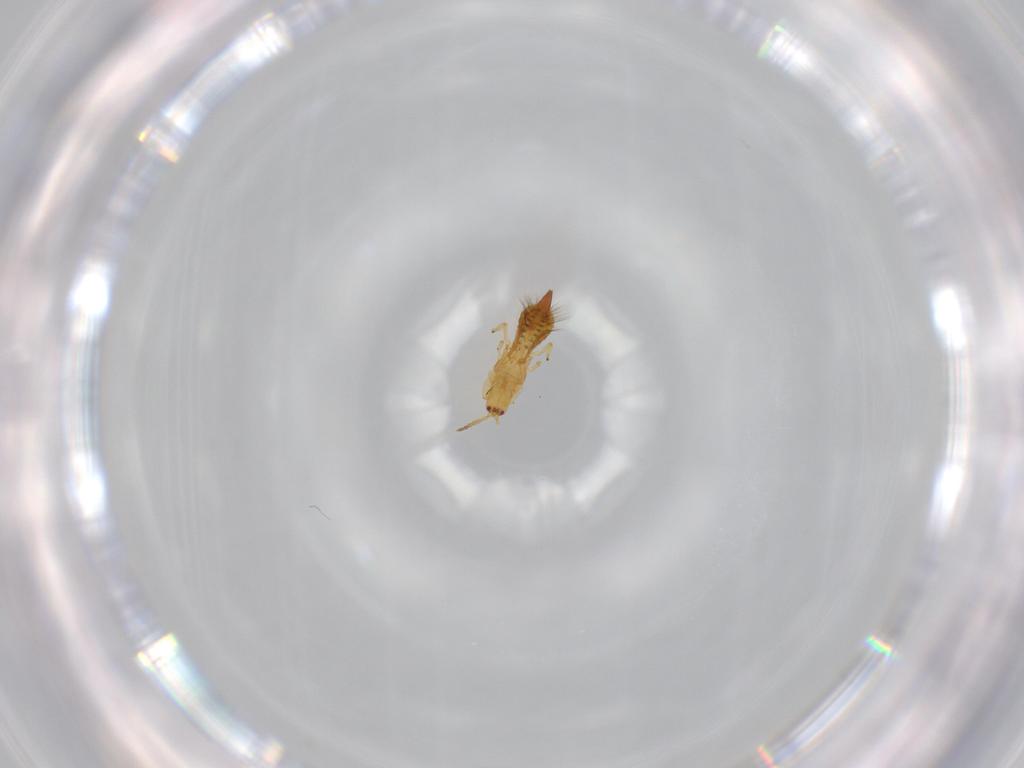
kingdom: Animalia
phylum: Arthropoda
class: Insecta
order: Thysanoptera
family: Phlaeothripidae
